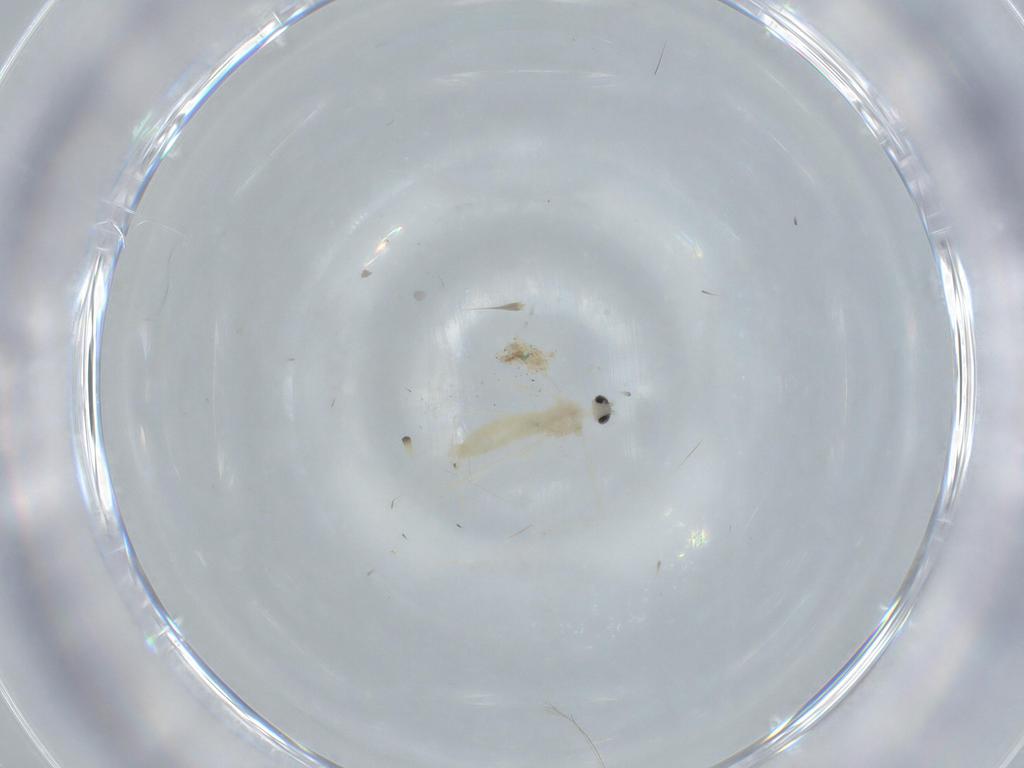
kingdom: Animalia
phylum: Arthropoda
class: Insecta
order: Diptera
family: Cecidomyiidae
